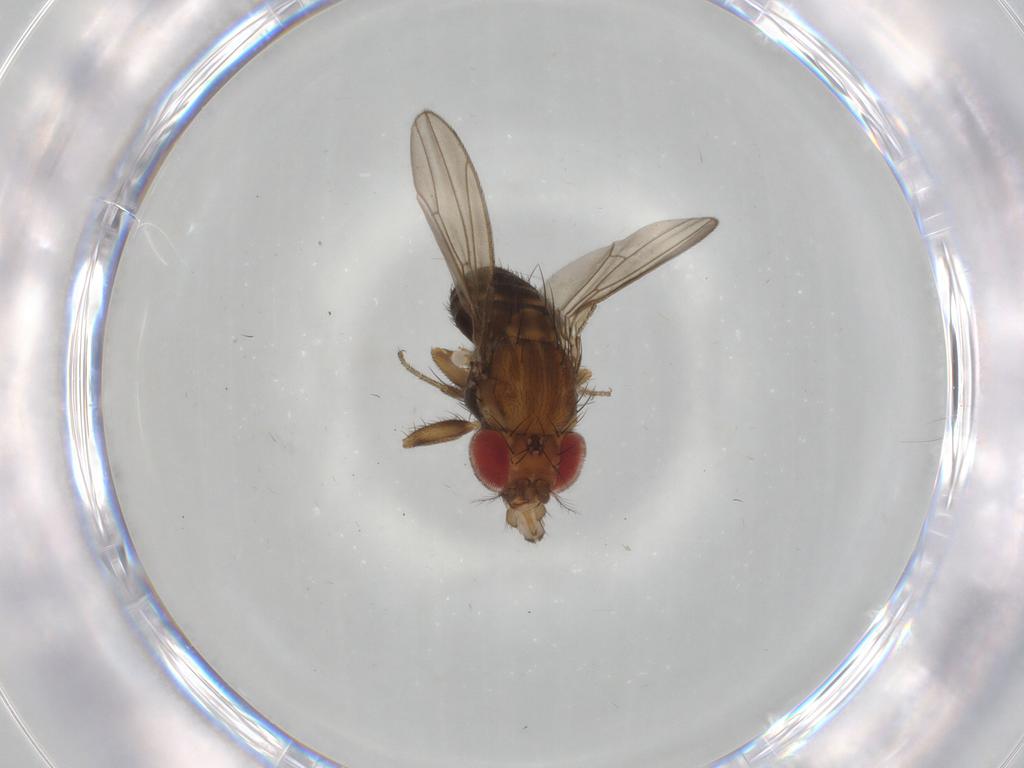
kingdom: Animalia
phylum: Arthropoda
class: Insecta
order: Diptera
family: Drosophilidae
